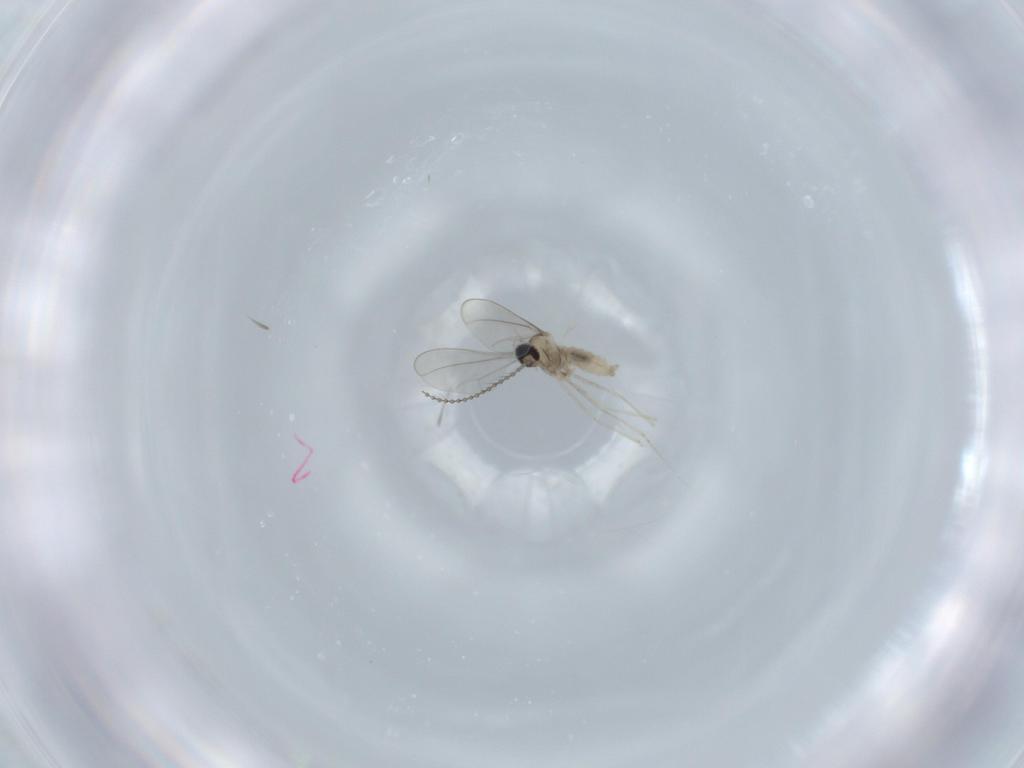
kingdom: Animalia
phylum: Arthropoda
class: Insecta
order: Diptera
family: Cecidomyiidae
